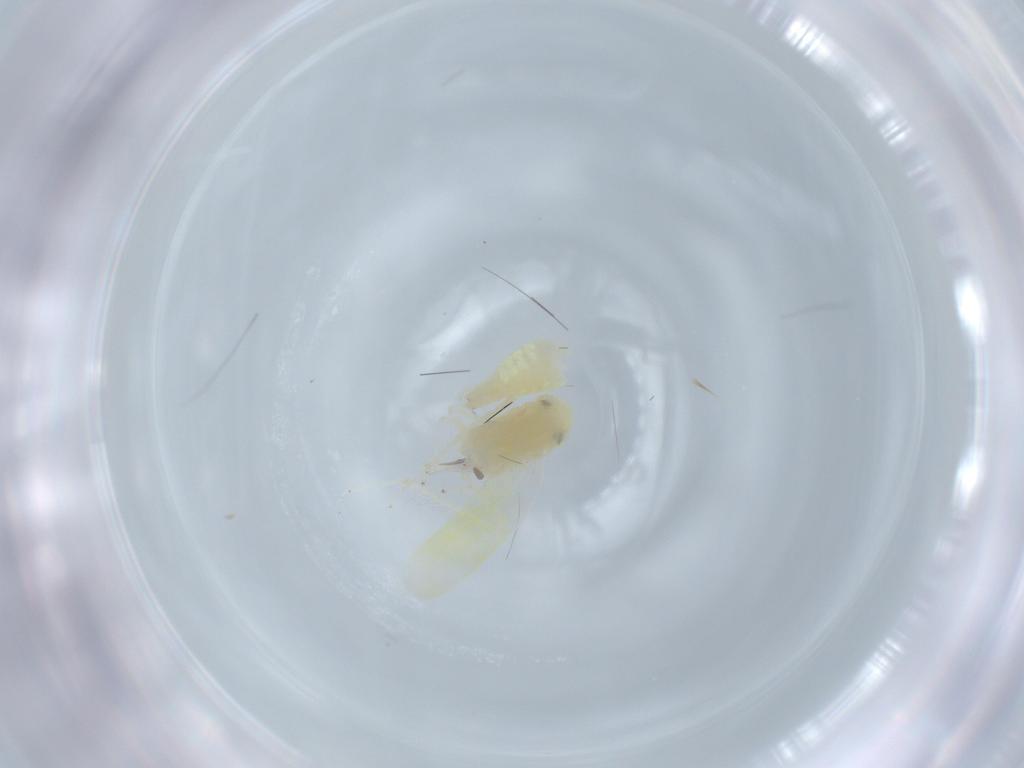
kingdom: Animalia
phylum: Arthropoda
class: Insecta
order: Hemiptera
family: Cicadellidae
